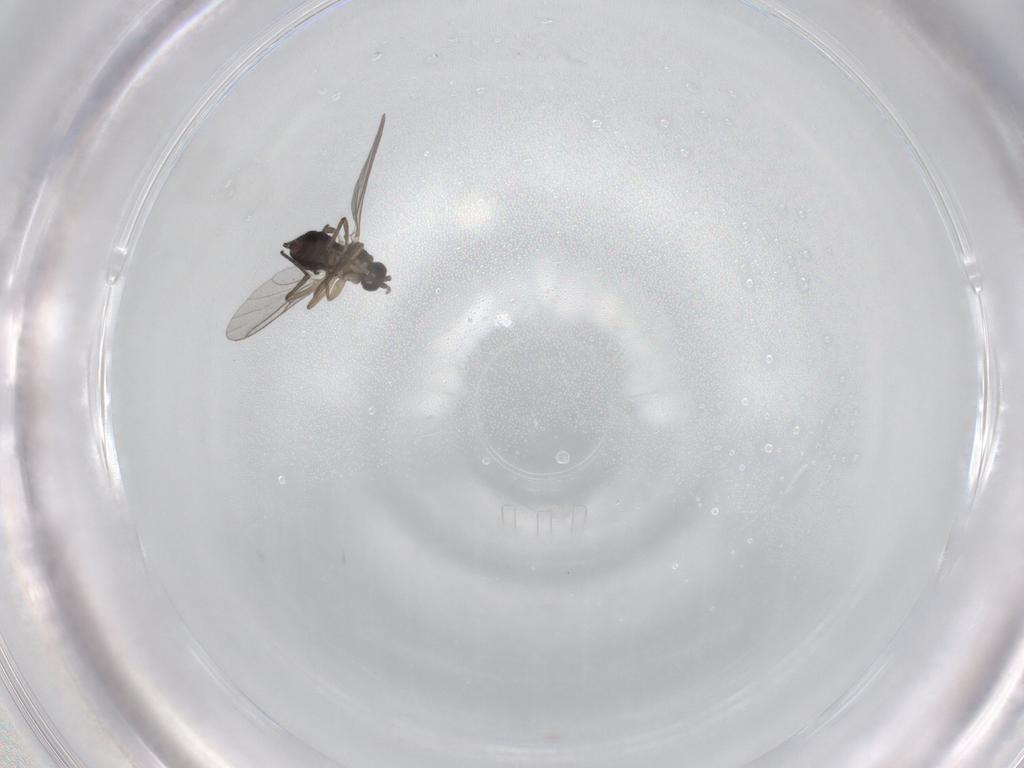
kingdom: Animalia
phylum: Arthropoda
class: Insecta
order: Diptera
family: Sciaridae
